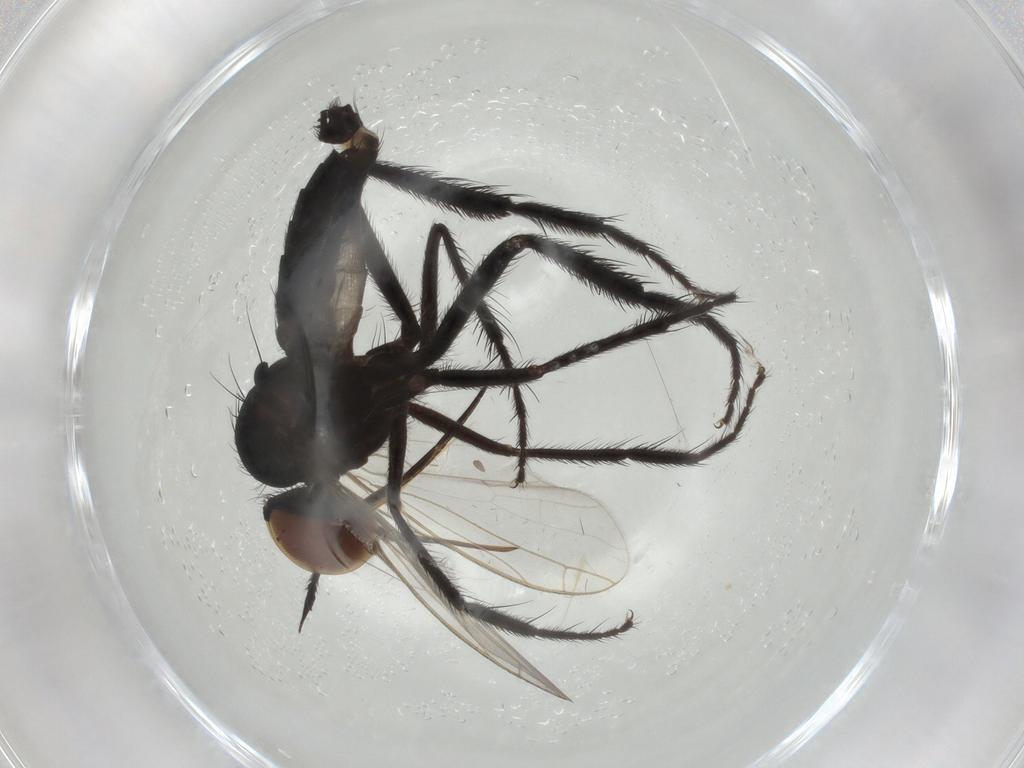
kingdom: Animalia
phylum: Arthropoda
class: Insecta
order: Diptera
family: Empididae
